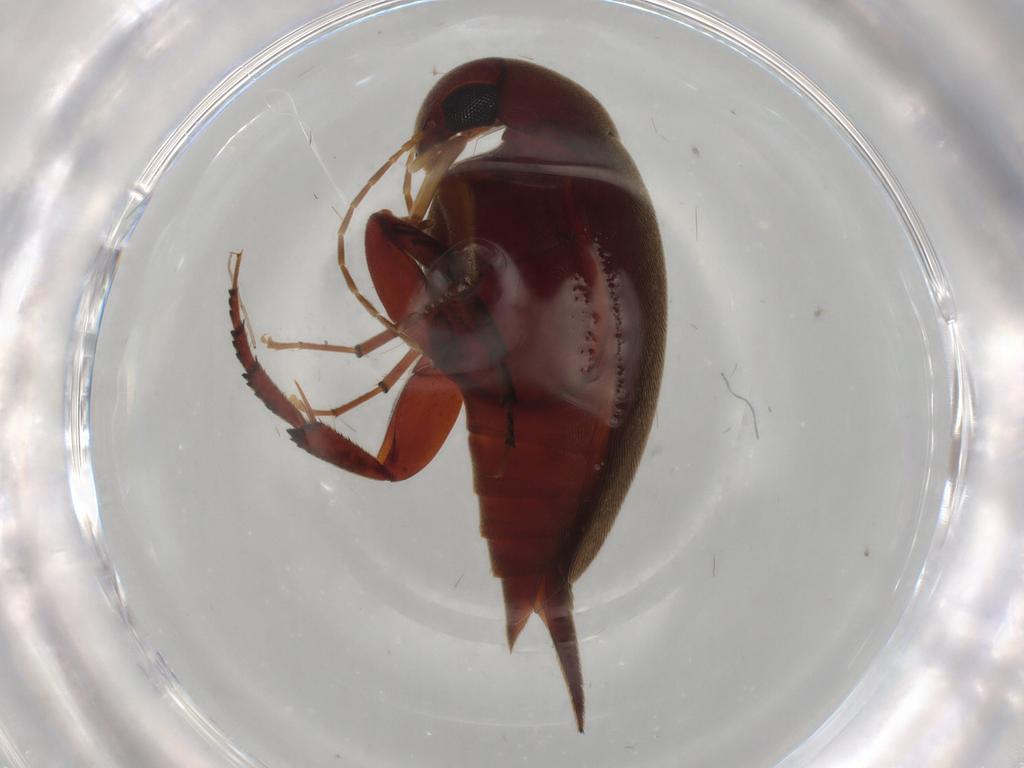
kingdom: Animalia
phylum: Arthropoda
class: Insecta
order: Coleoptera
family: Mordellidae
